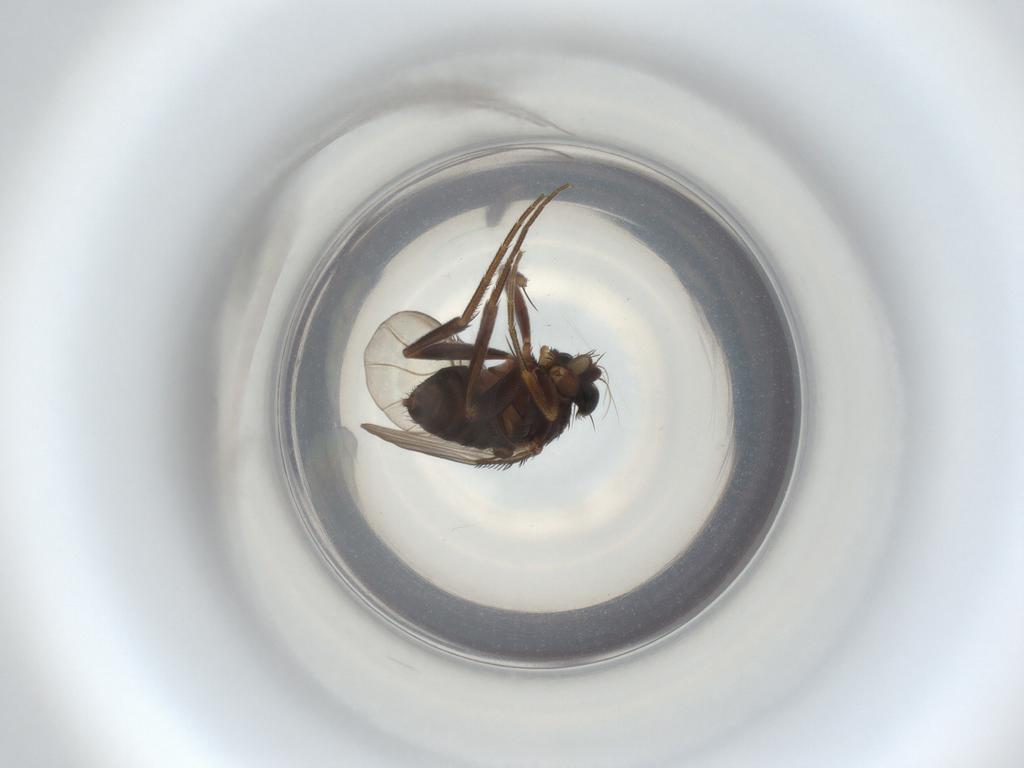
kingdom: Animalia
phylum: Arthropoda
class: Insecta
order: Diptera
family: Phoridae
